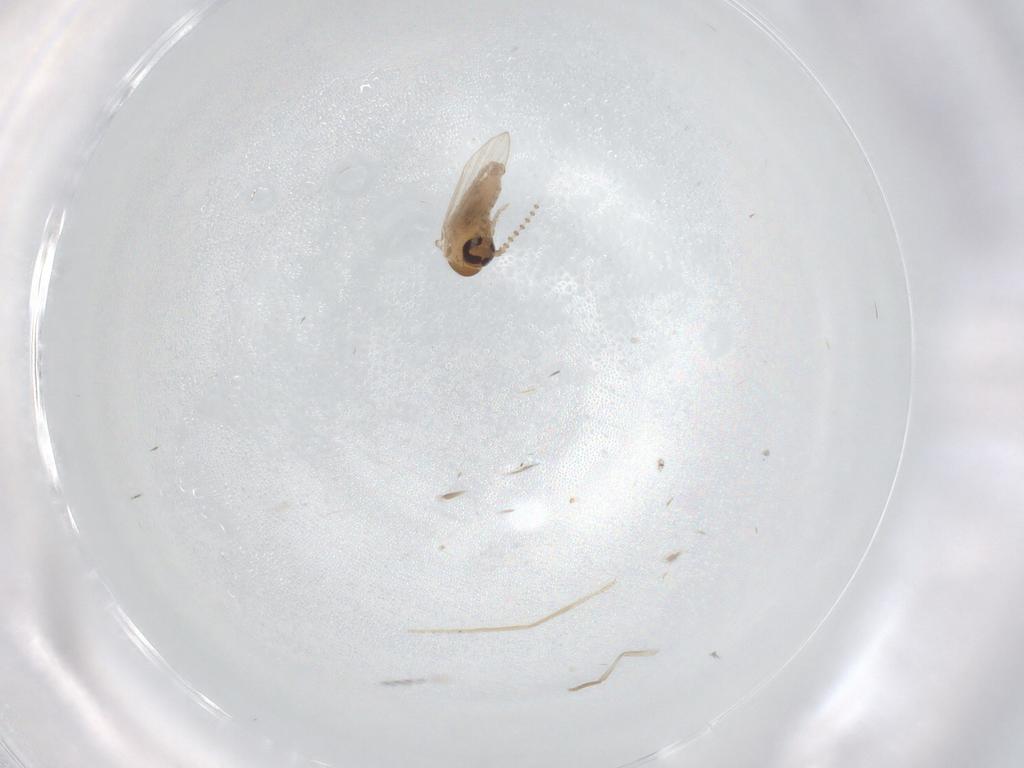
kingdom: Animalia
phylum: Arthropoda
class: Insecta
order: Diptera
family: Psychodidae
